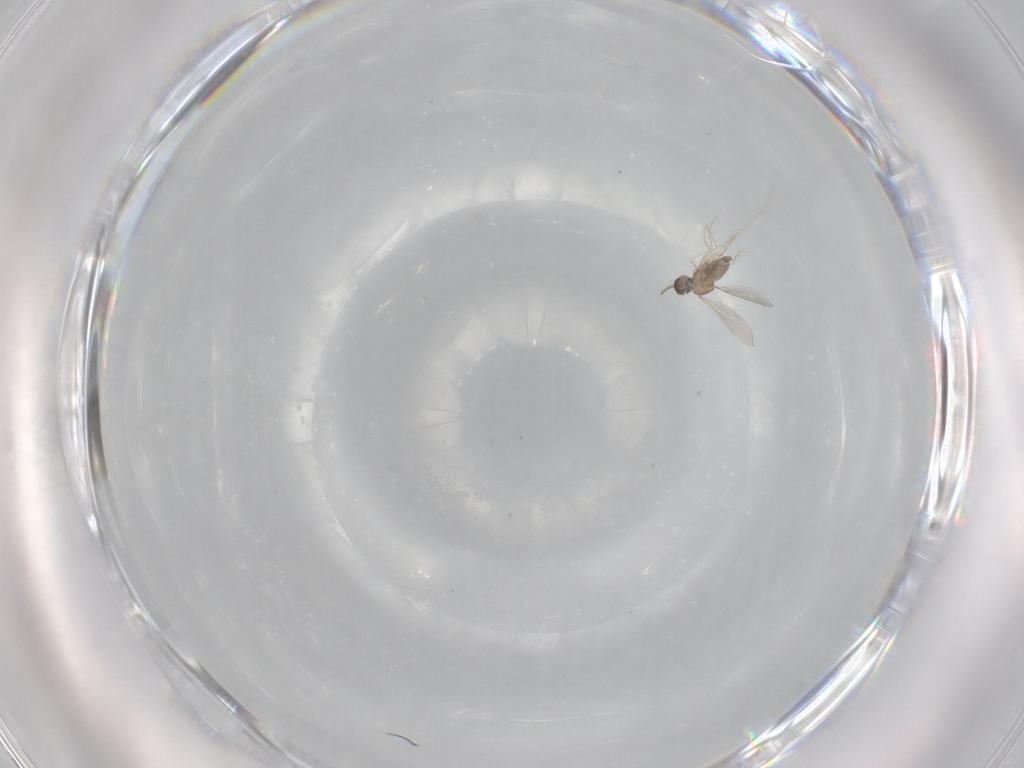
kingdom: Animalia
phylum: Arthropoda
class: Insecta
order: Diptera
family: Cecidomyiidae
